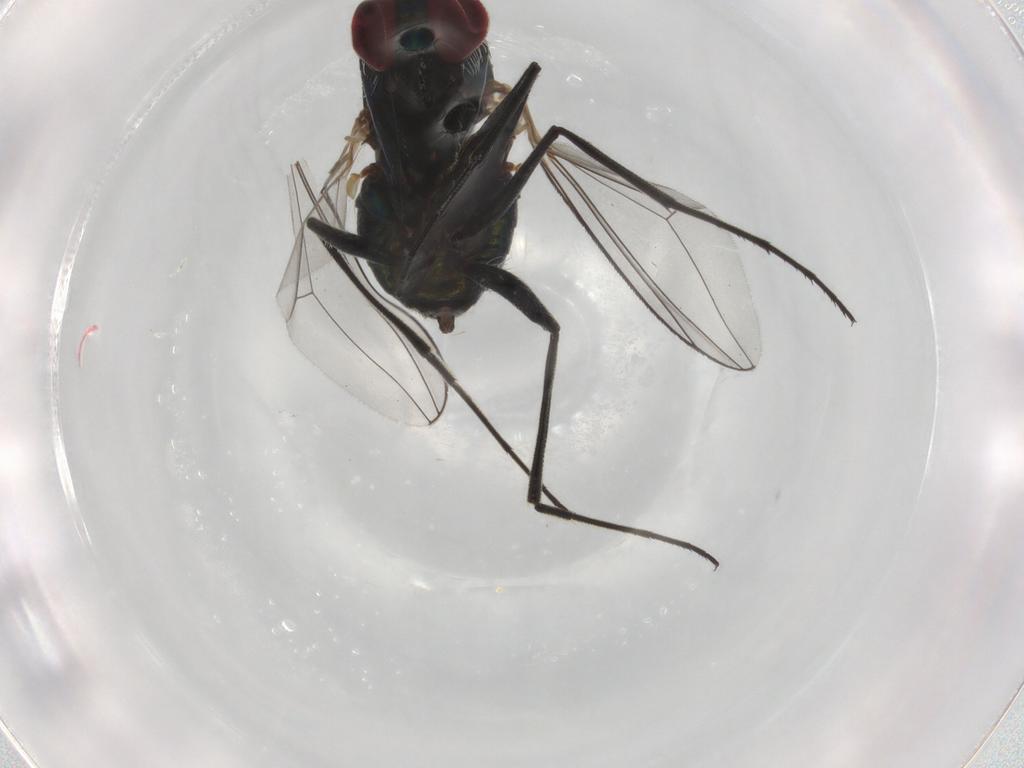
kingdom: Animalia
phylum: Arthropoda
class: Insecta
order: Diptera
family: Dolichopodidae
